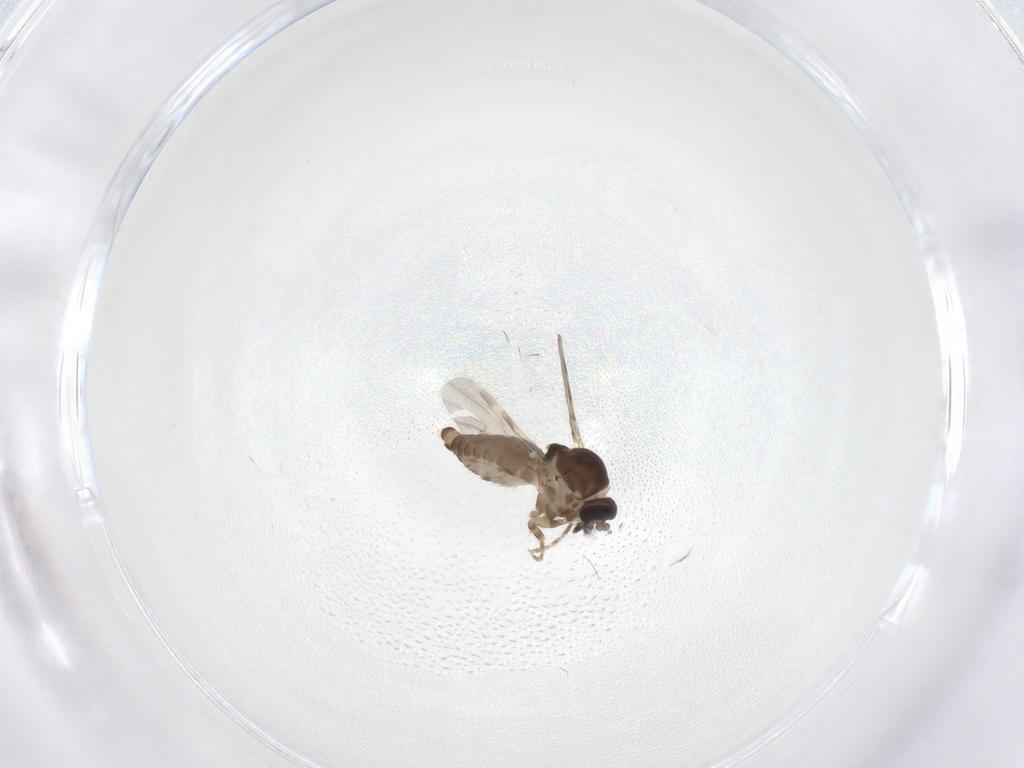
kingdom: Animalia
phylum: Arthropoda
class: Insecta
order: Diptera
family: Ceratopogonidae
